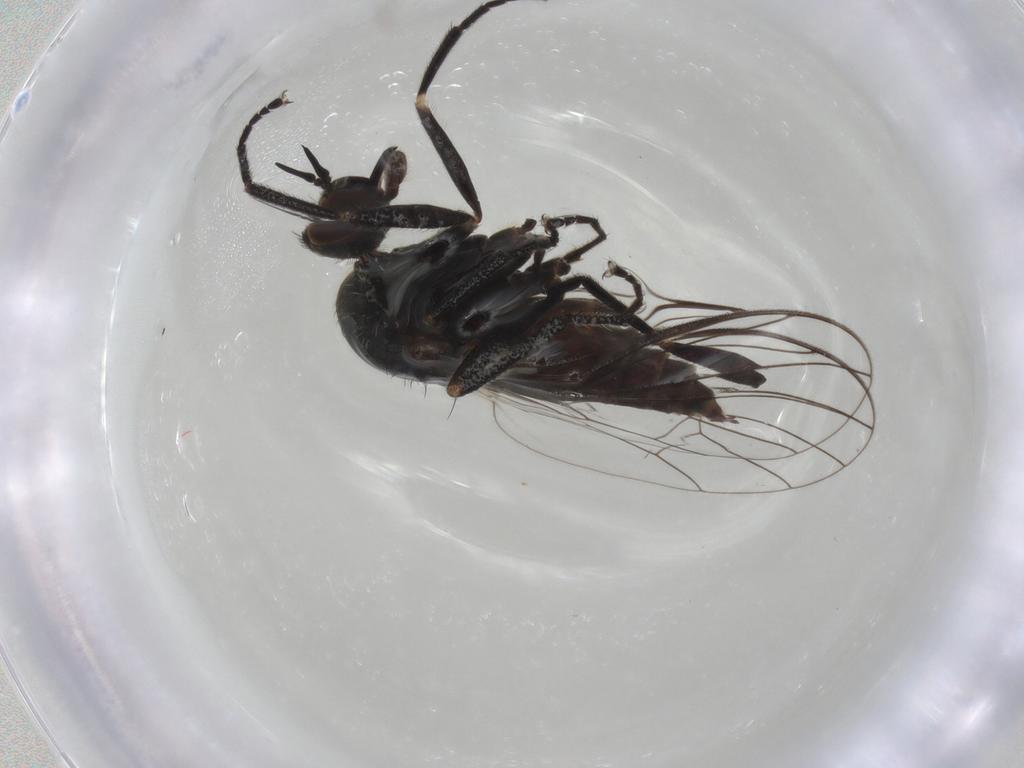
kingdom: Animalia
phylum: Arthropoda
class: Insecta
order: Diptera
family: Empididae
